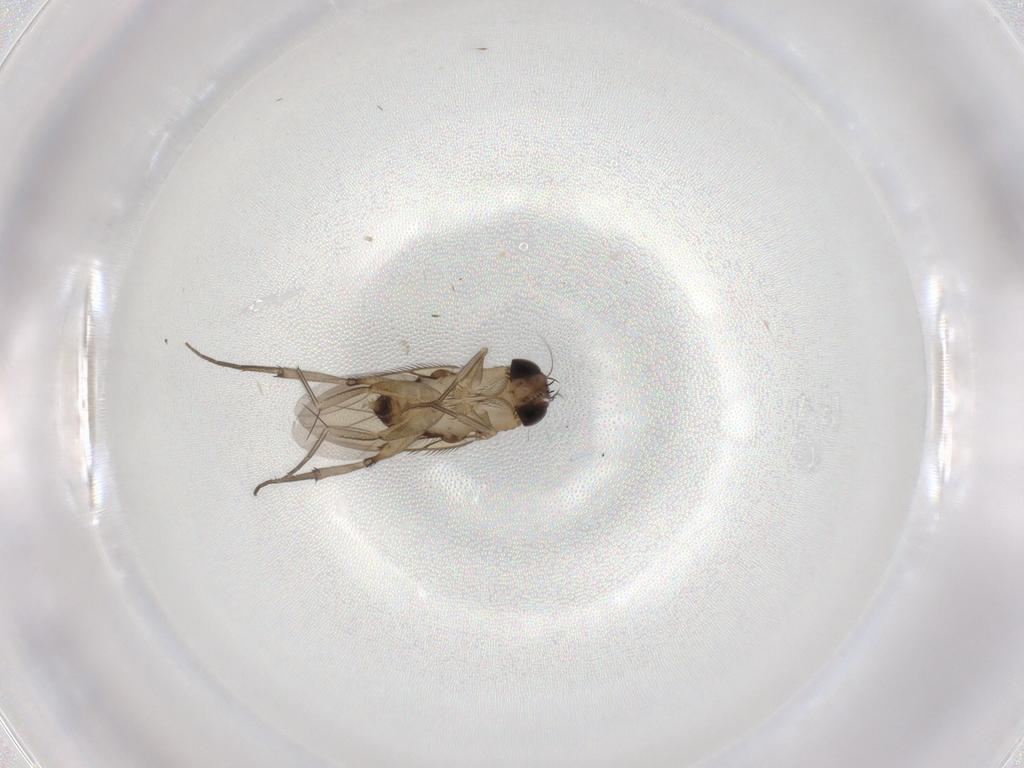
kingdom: Animalia
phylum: Arthropoda
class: Insecta
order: Diptera
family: Phoridae
